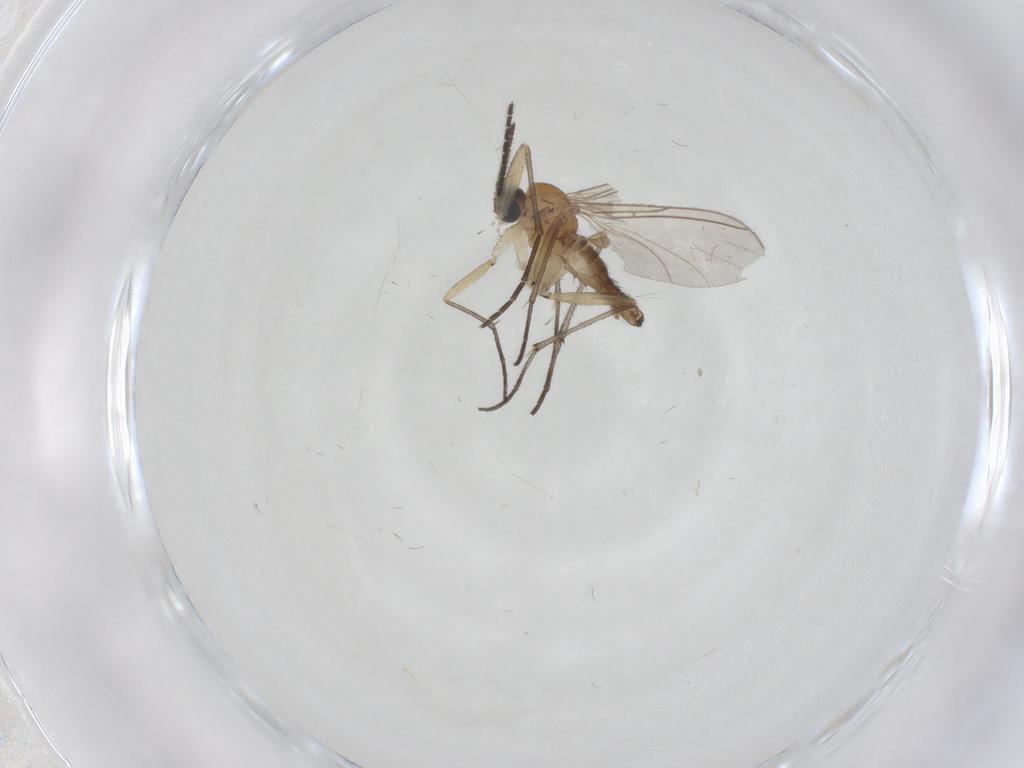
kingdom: Animalia
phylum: Arthropoda
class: Insecta
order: Diptera
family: Sciaridae
